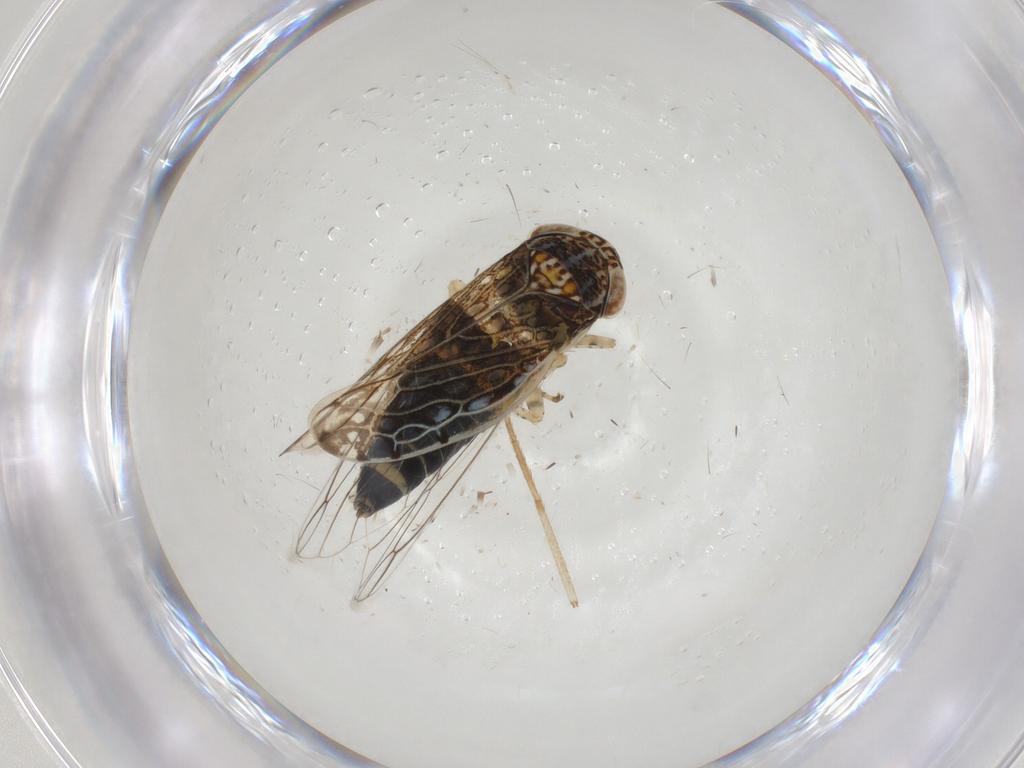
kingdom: Animalia
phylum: Arthropoda
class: Insecta
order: Hemiptera
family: Cicadellidae
